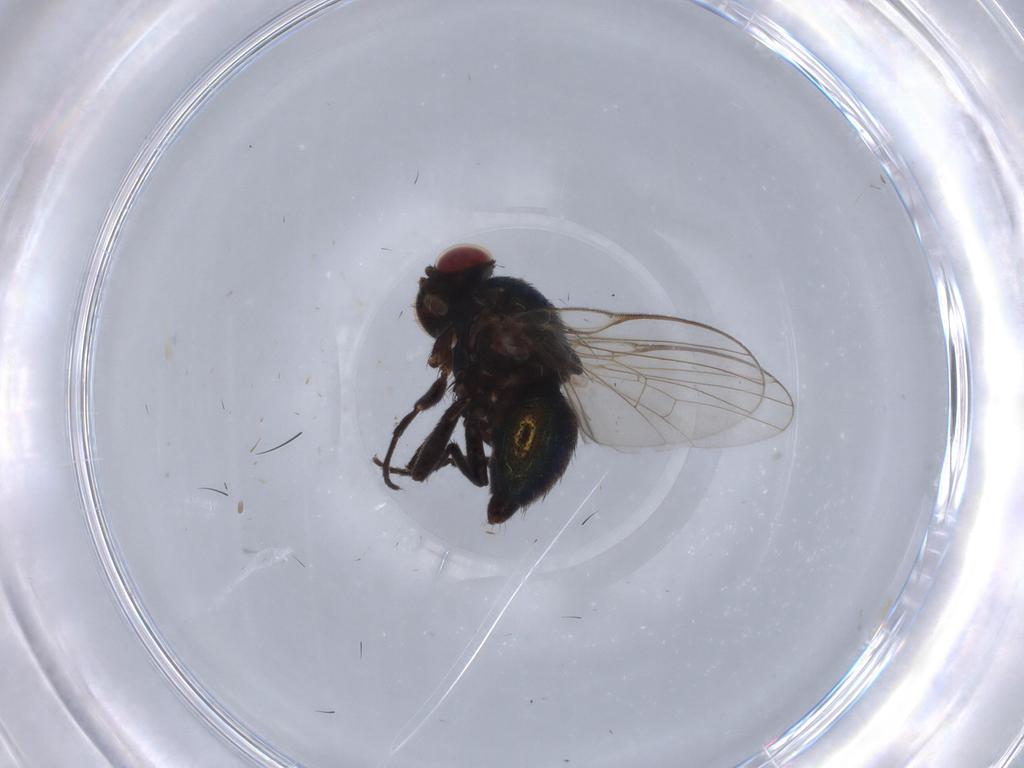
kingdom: Animalia
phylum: Arthropoda
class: Insecta
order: Diptera
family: Muscidae
